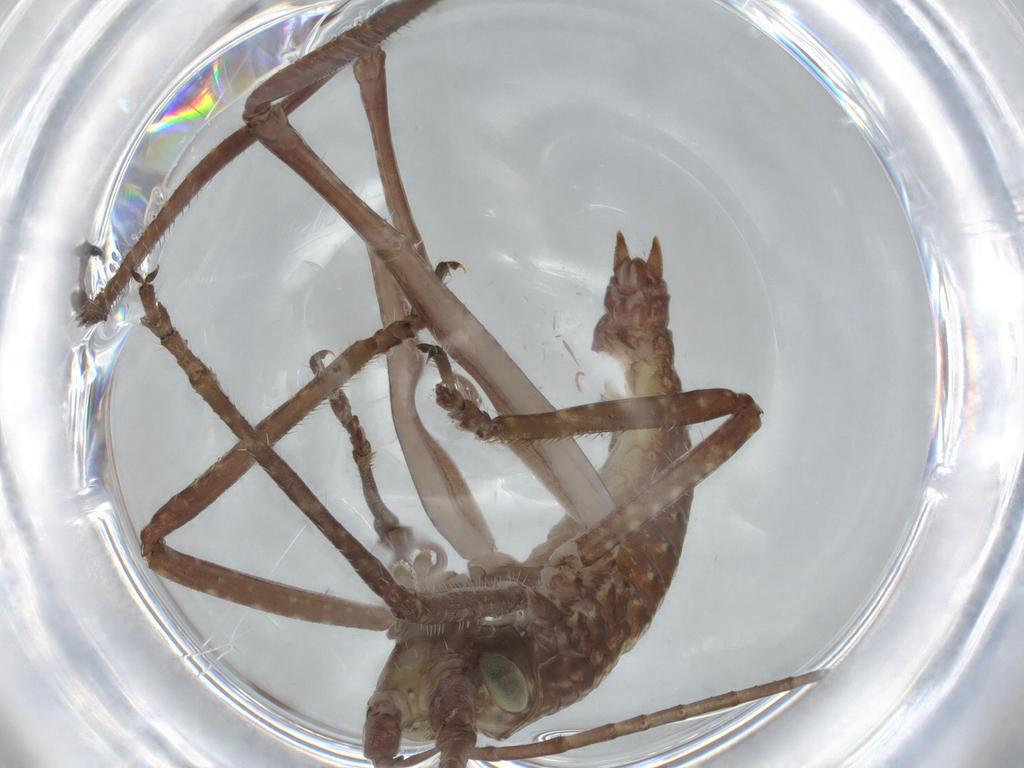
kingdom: Animalia
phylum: Arthropoda
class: Insecta
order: Orthoptera
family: Tettigoniidae
